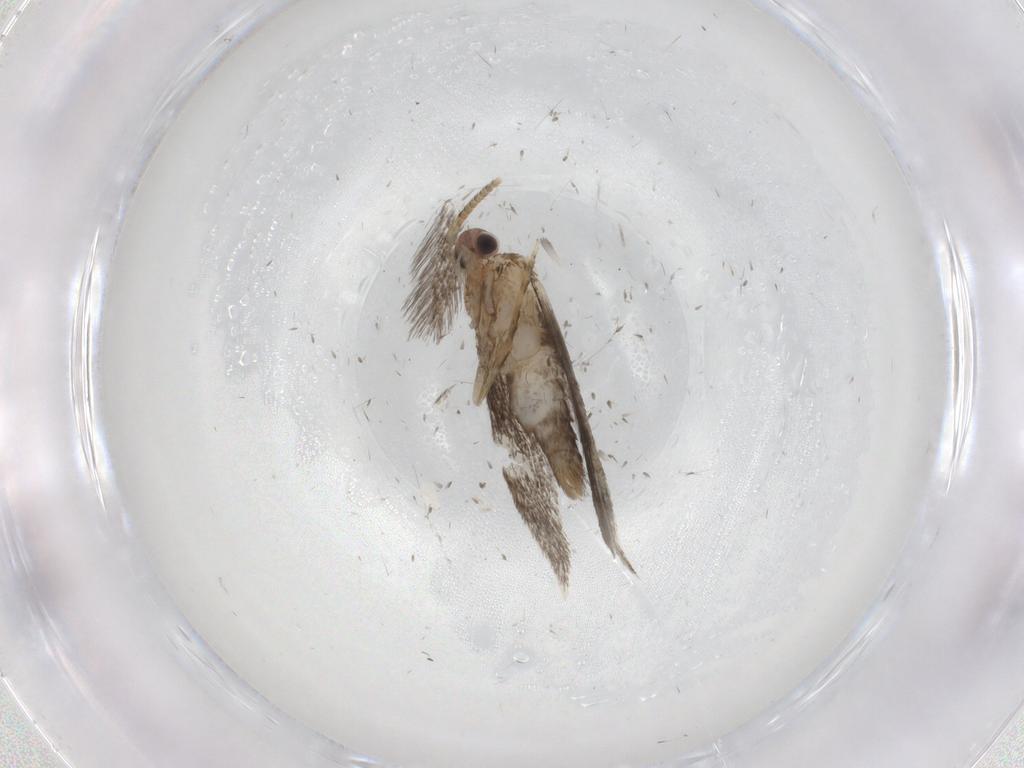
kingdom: Animalia
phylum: Arthropoda
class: Insecta
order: Lepidoptera
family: Tineidae
